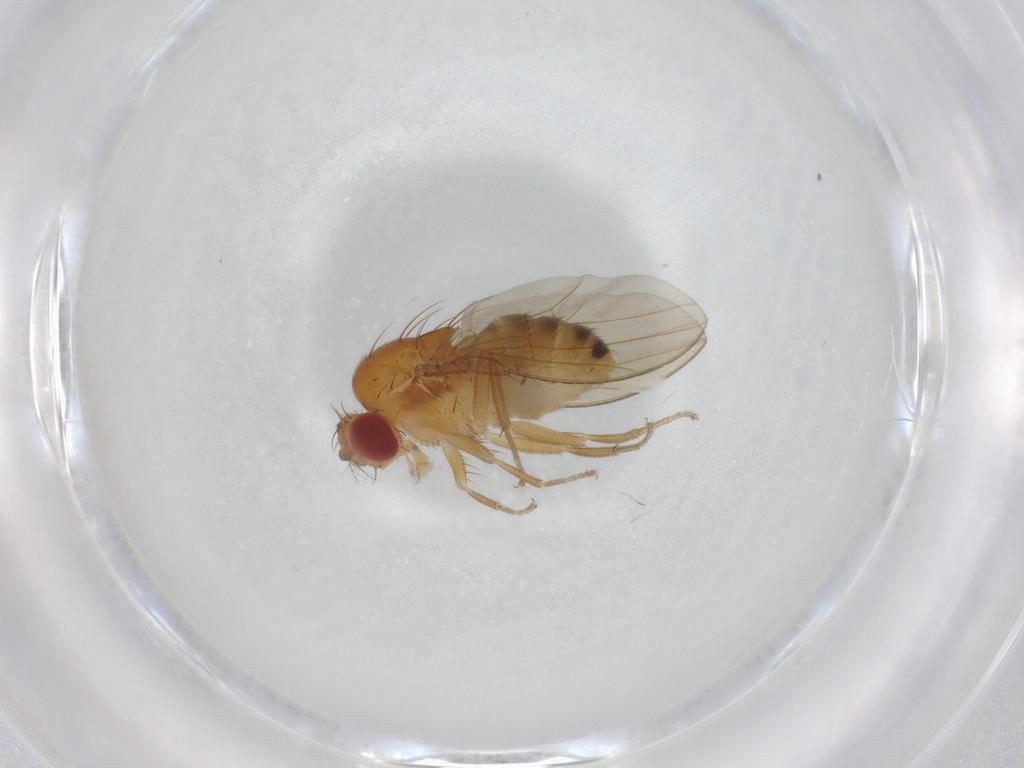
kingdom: Animalia
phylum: Arthropoda
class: Insecta
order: Diptera
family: Drosophilidae
